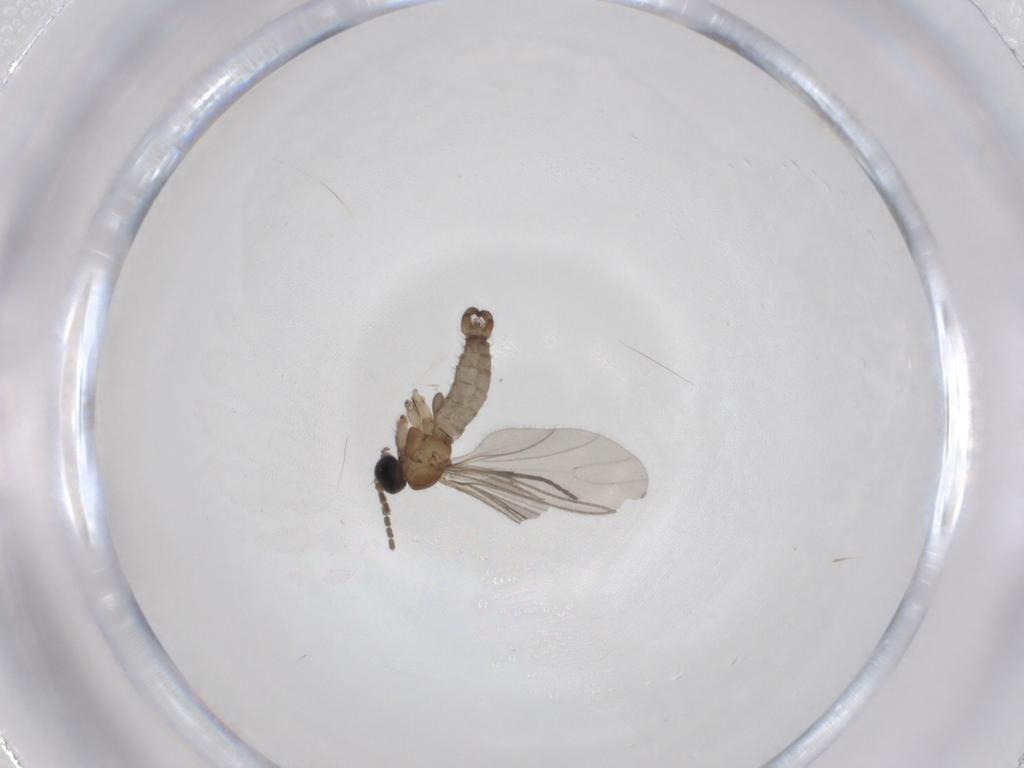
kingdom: Animalia
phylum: Arthropoda
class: Insecta
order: Diptera
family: Sciaridae
